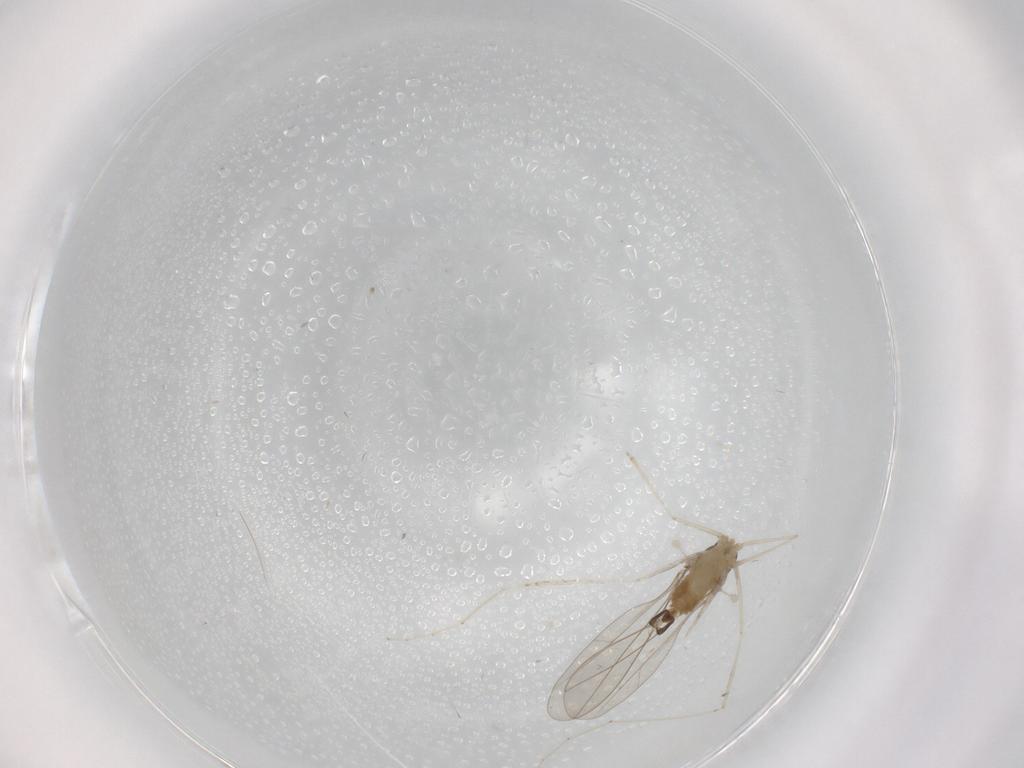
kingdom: Animalia
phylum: Arthropoda
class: Insecta
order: Diptera
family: Cecidomyiidae
